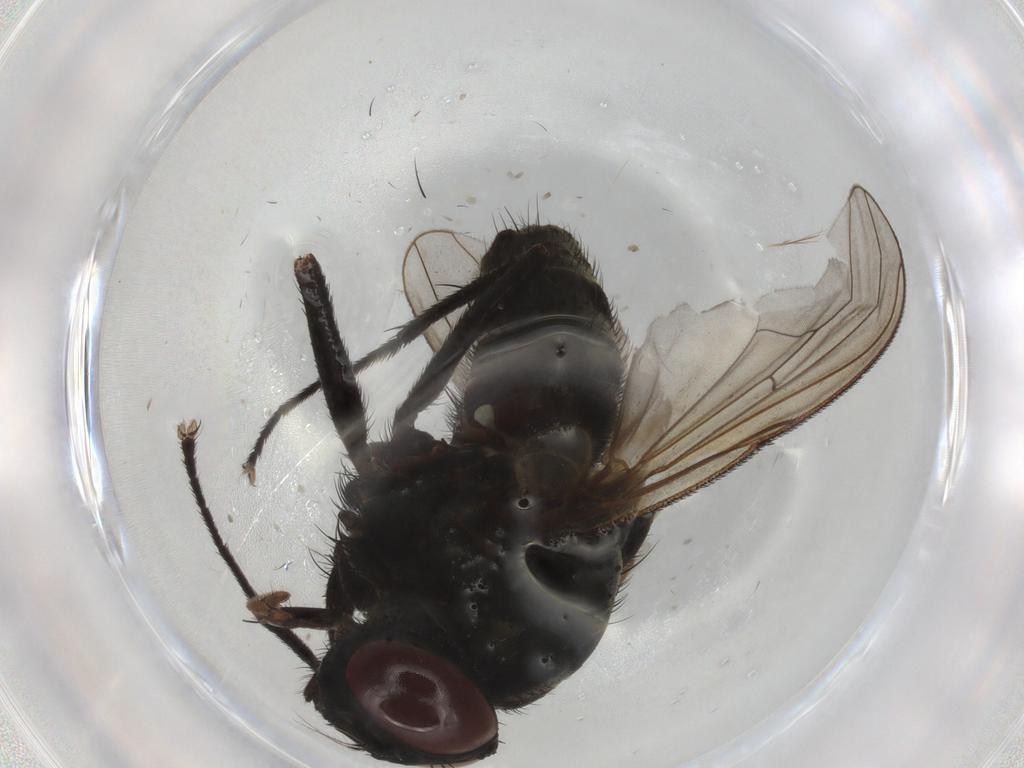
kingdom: Animalia
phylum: Arthropoda
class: Insecta
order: Diptera
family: Muscidae
